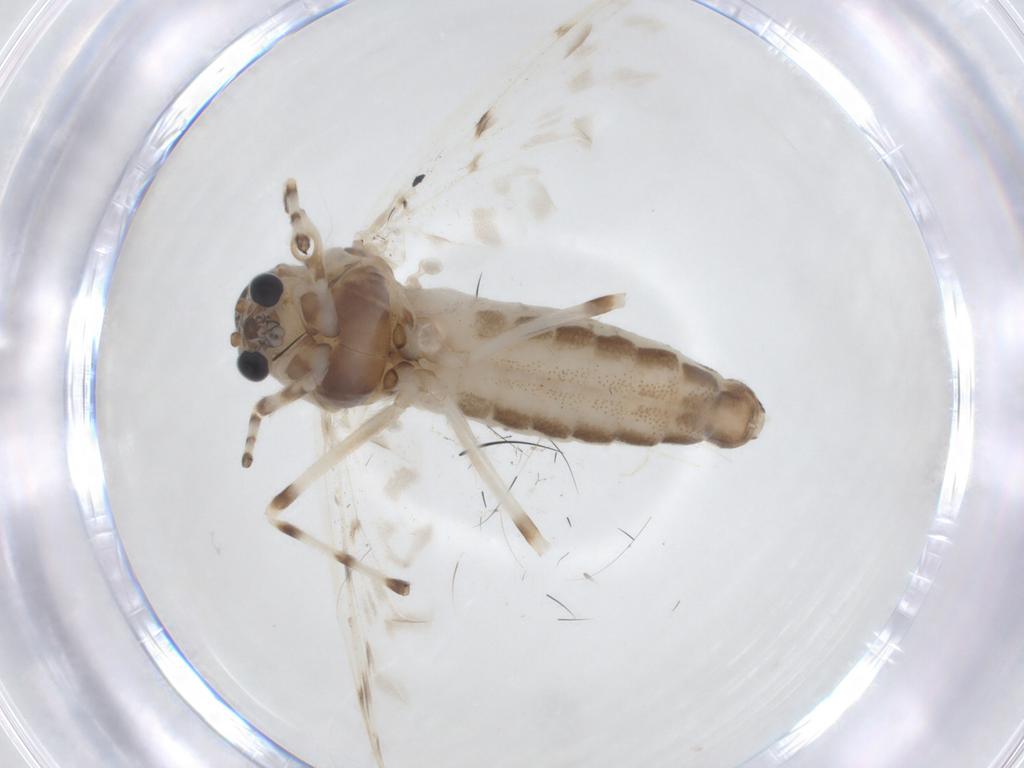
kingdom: Animalia
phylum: Arthropoda
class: Insecta
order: Diptera
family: Chironomidae
